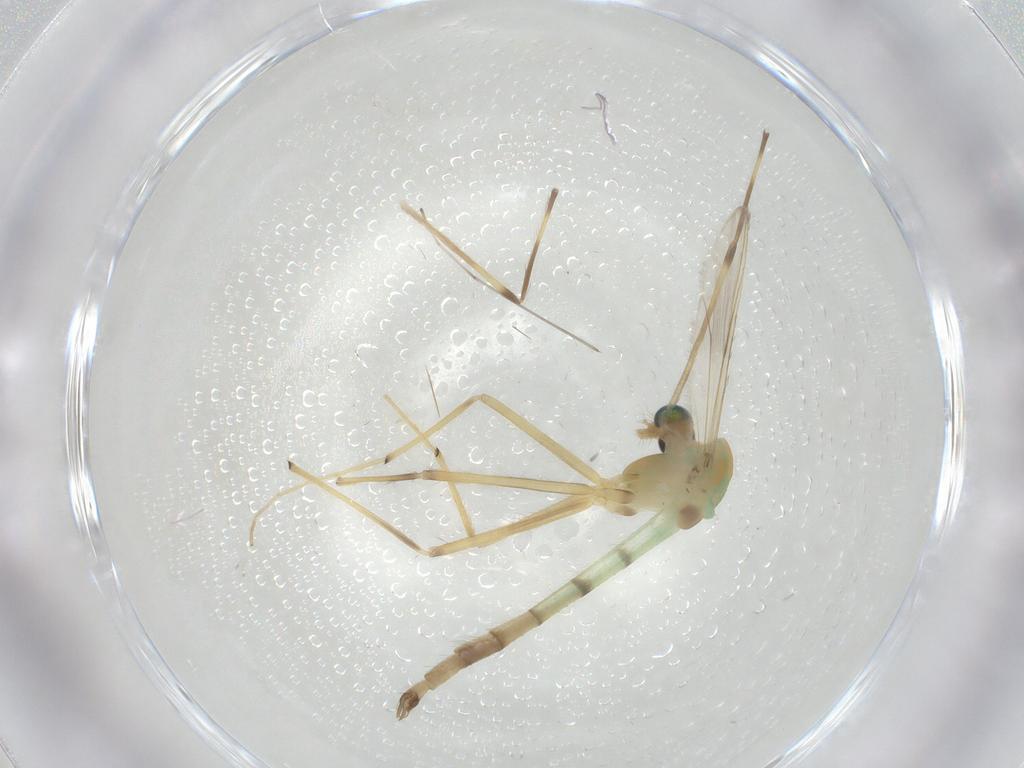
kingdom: Animalia
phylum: Arthropoda
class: Insecta
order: Diptera
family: Chironomidae
